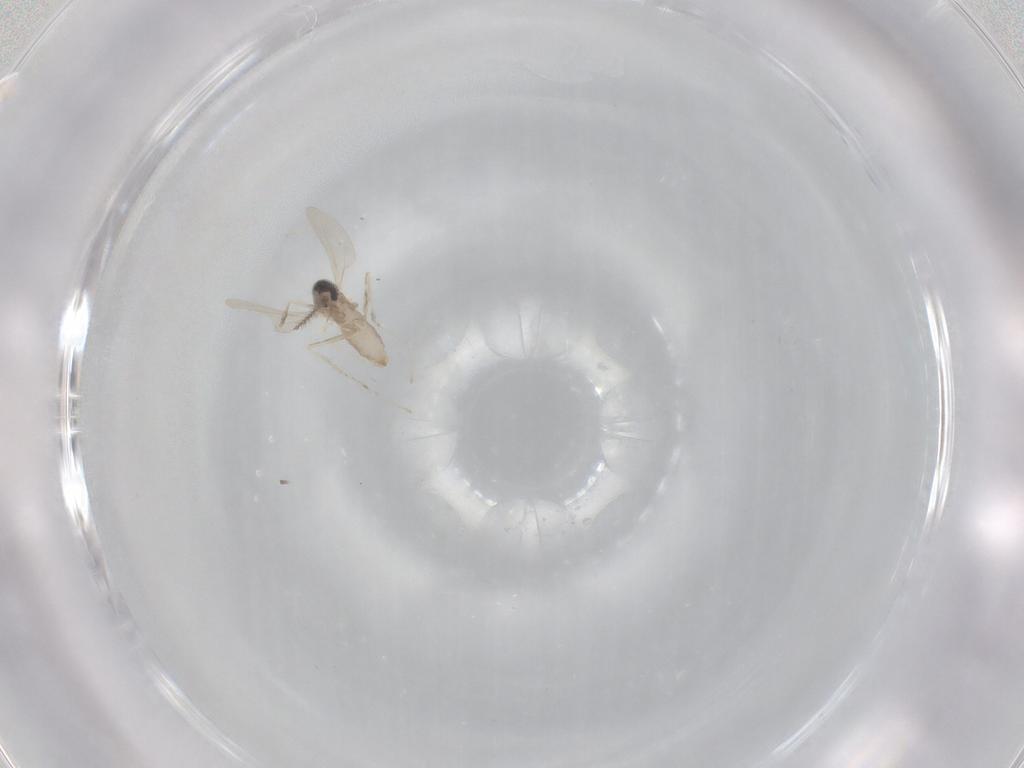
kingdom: Animalia
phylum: Arthropoda
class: Insecta
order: Diptera
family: Cecidomyiidae
